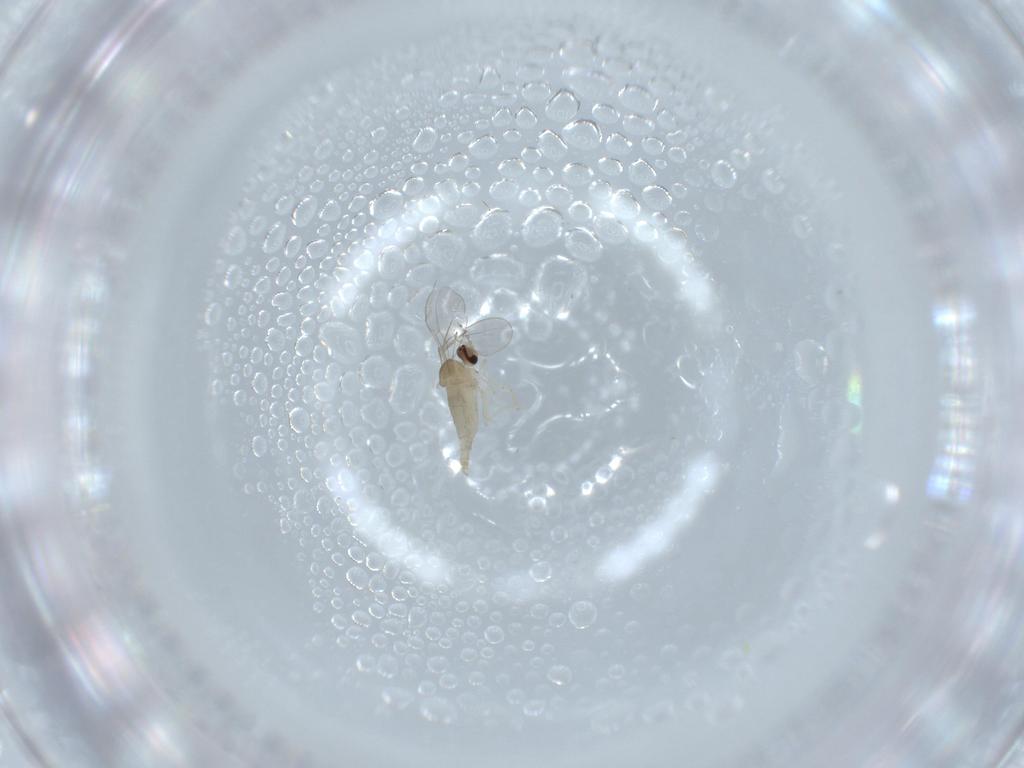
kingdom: Animalia
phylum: Arthropoda
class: Insecta
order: Diptera
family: Cecidomyiidae
